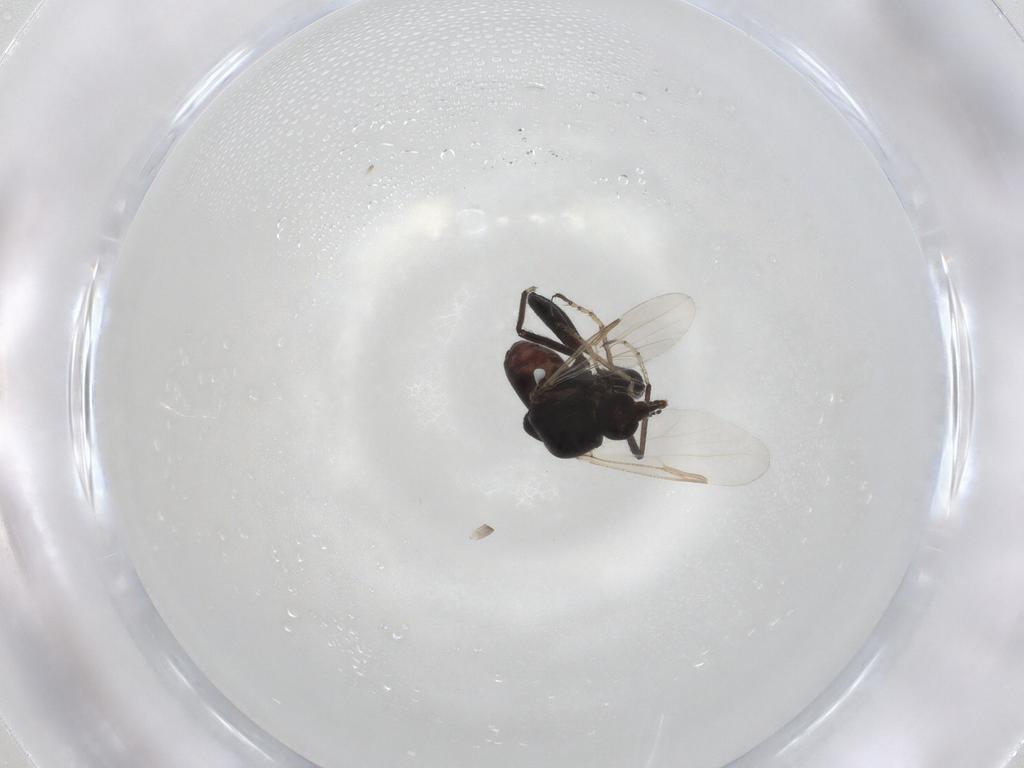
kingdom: Animalia
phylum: Arthropoda
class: Insecta
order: Diptera
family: Ceratopogonidae
